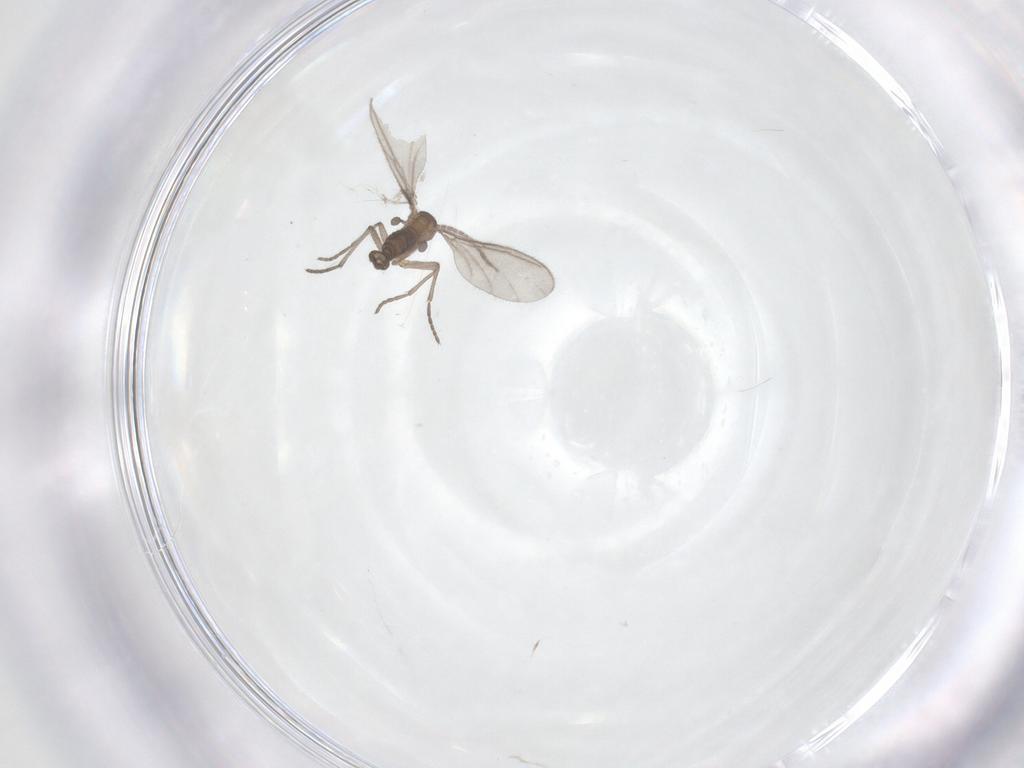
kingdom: Animalia
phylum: Arthropoda
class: Insecta
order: Diptera
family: Sciaridae
